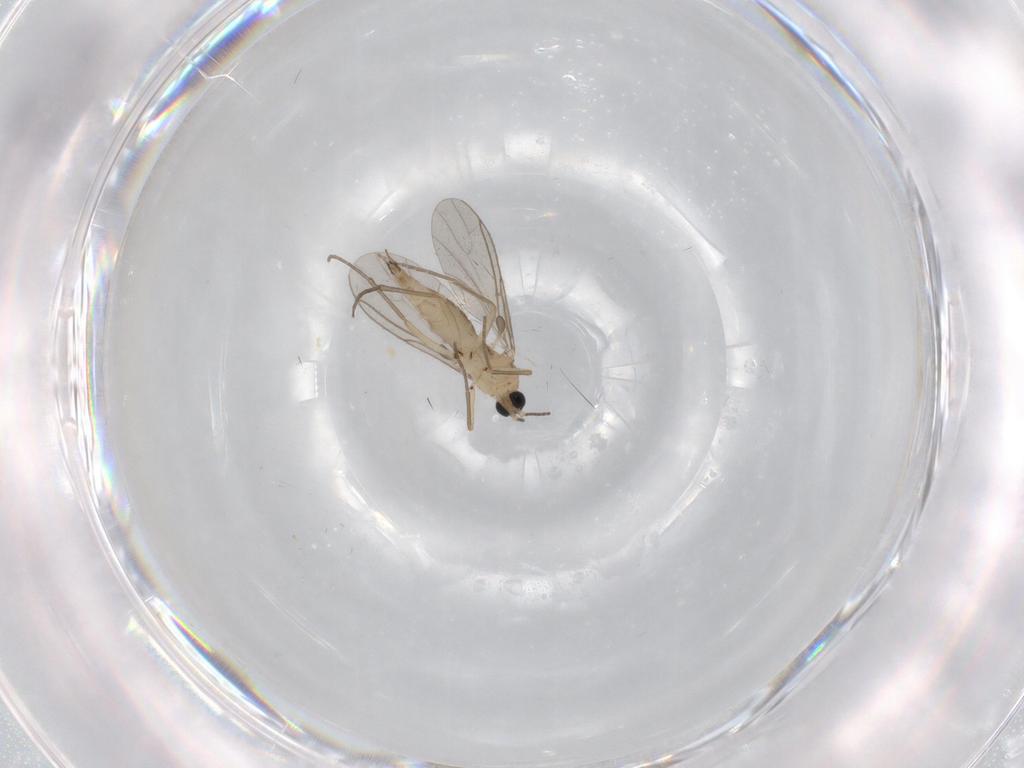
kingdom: Animalia
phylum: Arthropoda
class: Insecta
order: Diptera
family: Sciaridae
